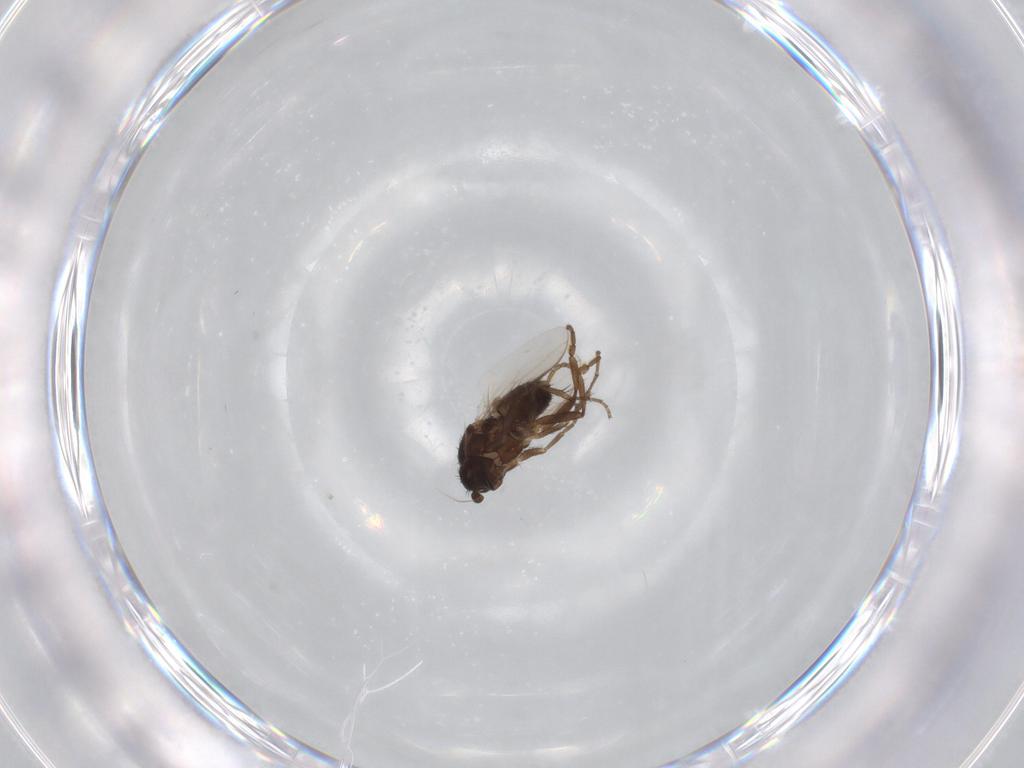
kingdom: Animalia
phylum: Arthropoda
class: Insecta
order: Diptera
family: Sphaeroceridae
